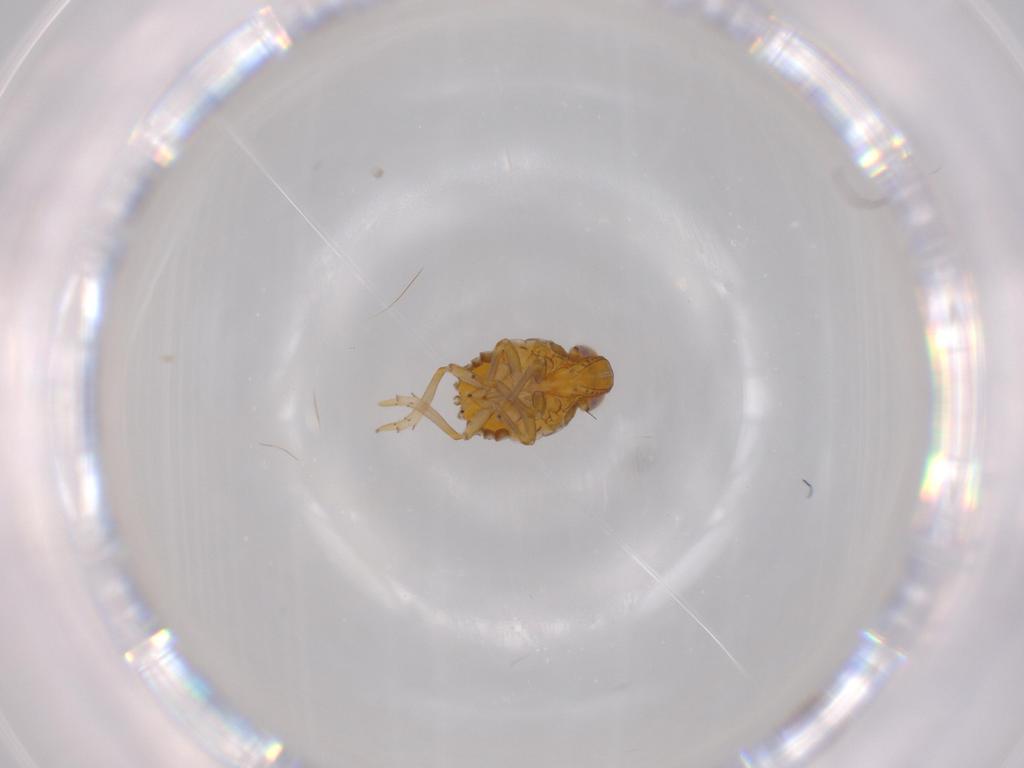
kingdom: Animalia
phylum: Arthropoda
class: Insecta
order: Hemiptera
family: Issidae
